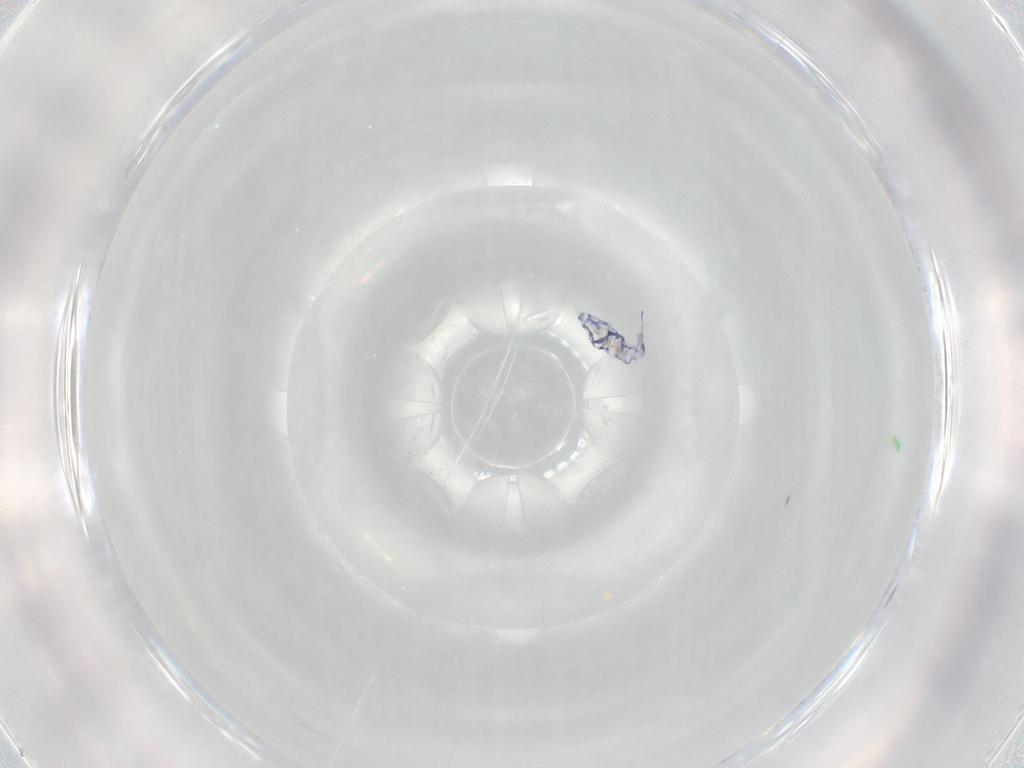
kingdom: Animalia
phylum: Arthropoda
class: Collembola
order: Entomobryomorpha
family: Entomobryidae
